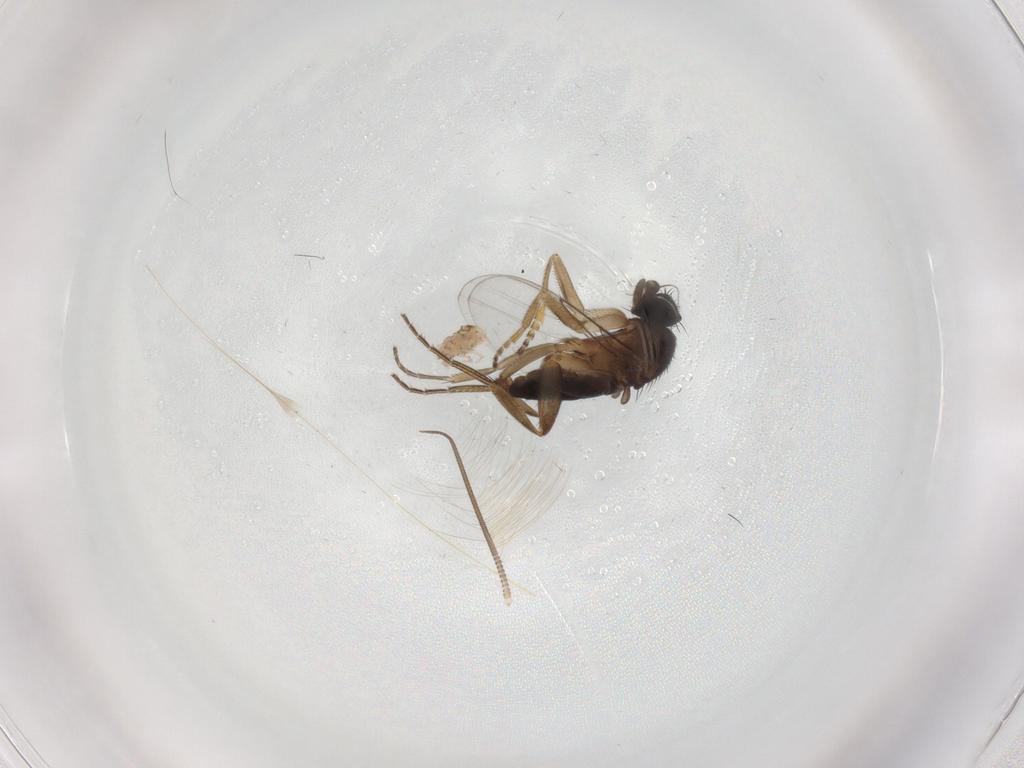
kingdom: Animalia
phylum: Arthropoda
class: Insecta
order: Diptera
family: Phoridae
